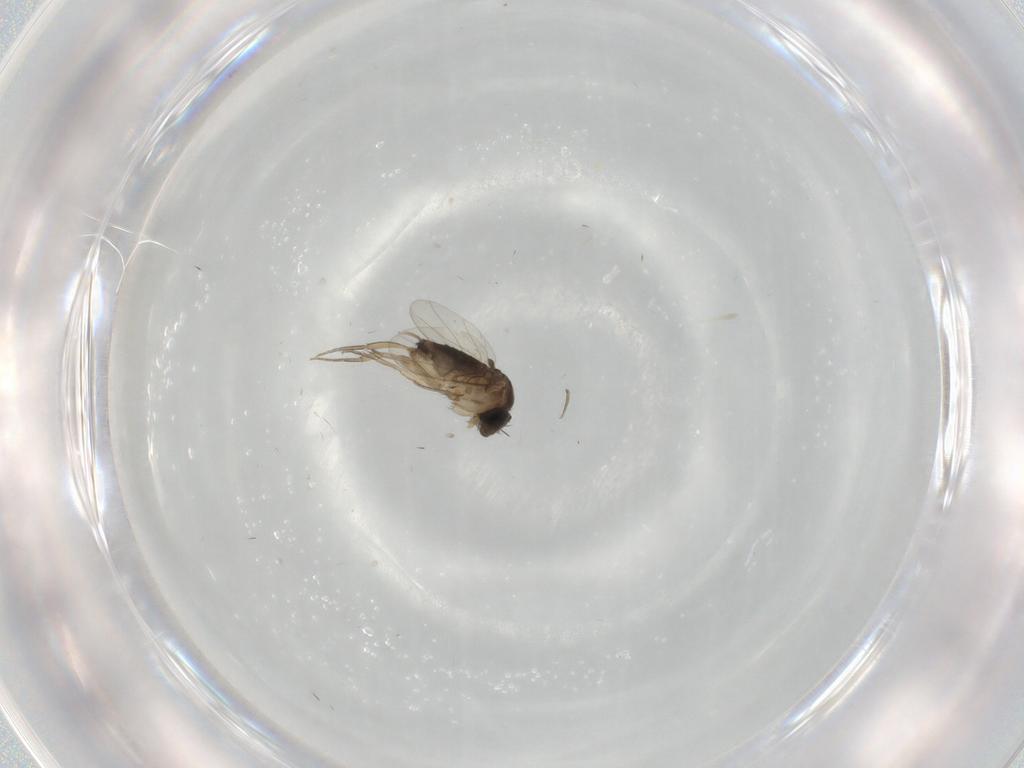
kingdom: Animalia
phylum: Arthropoda
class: Insecta
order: Diptera
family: Phoridae
